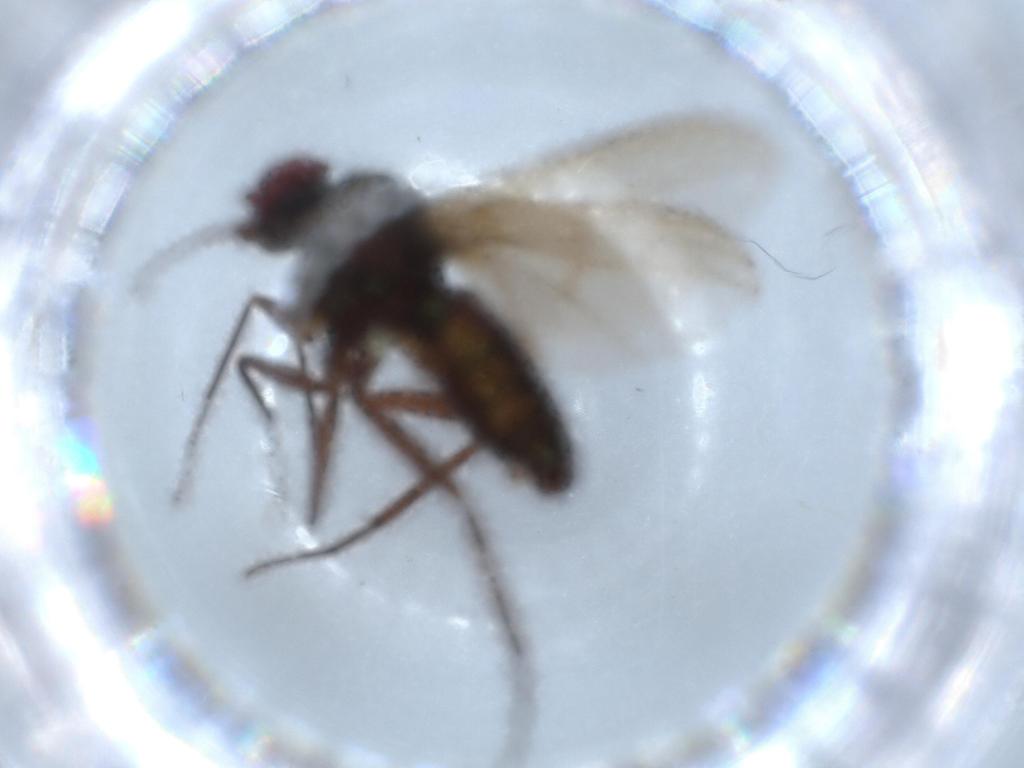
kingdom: Animalia
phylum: Arthropoda
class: Insecta
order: Diptera
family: Dolichopodidae
